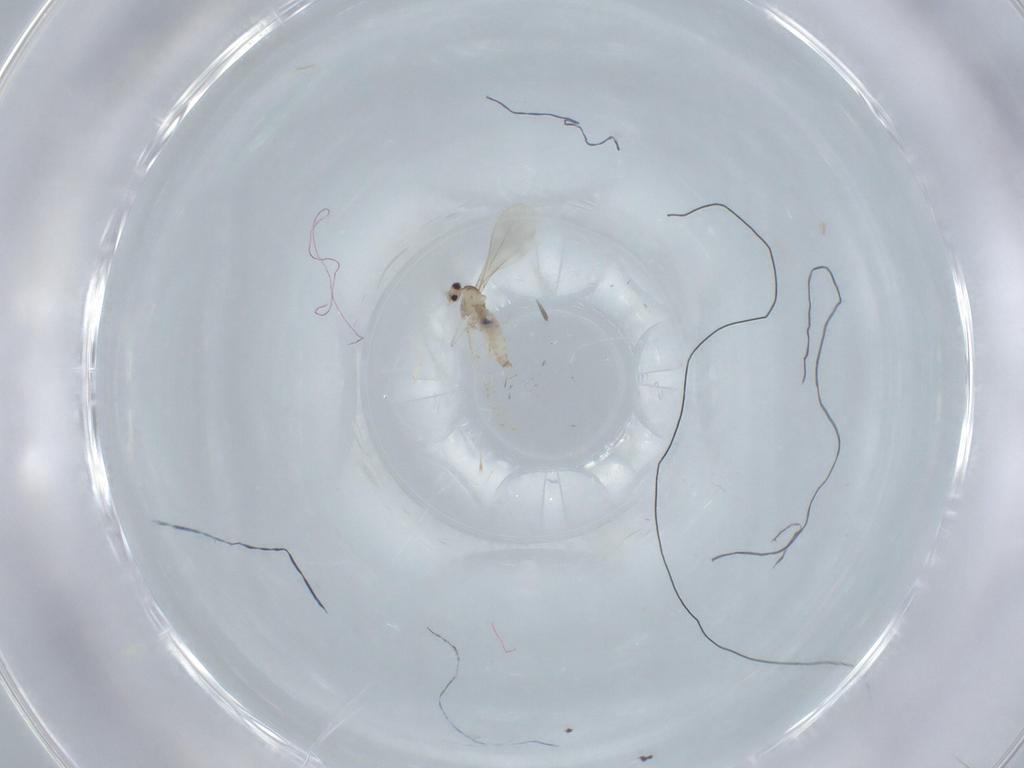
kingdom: Animalia
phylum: Arthropoda
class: Insecta
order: Diptera
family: Cecidomyiidae
